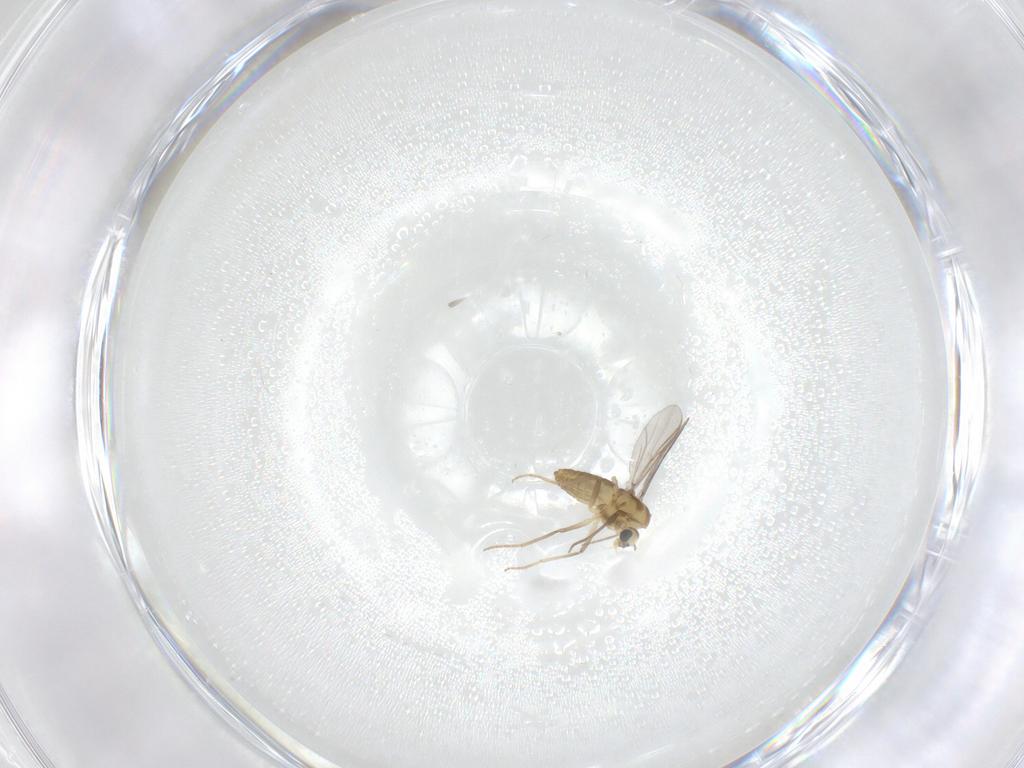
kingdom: Animalia
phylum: Arthropoda
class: Insecta
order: Diptera
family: Chironomidae
